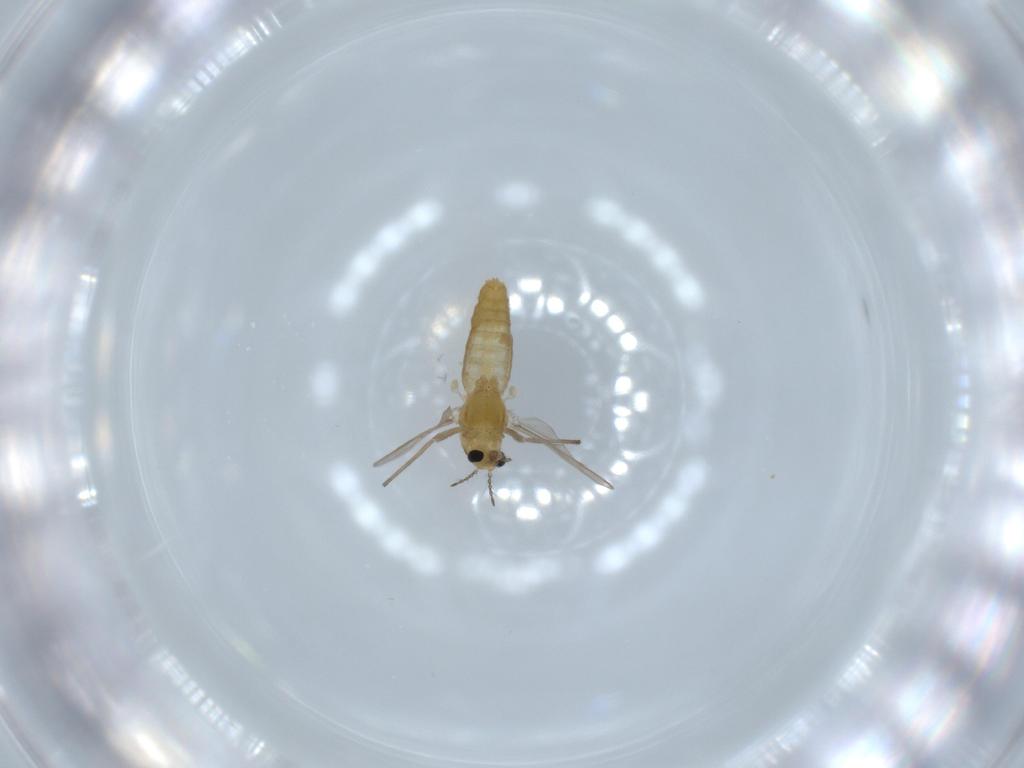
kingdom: Animalia
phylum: Arthropoda
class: Insecta
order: Diptera
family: Chironomidae
